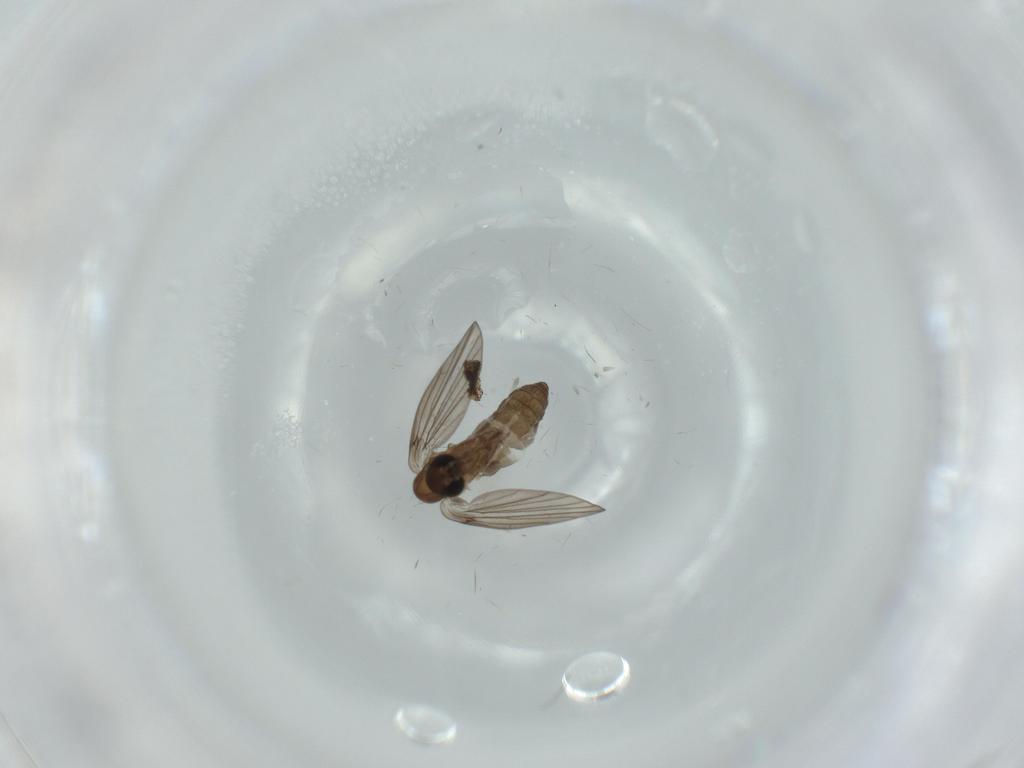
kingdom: Animalia
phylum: Arthropoda
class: Insecta
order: Diptera
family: Psychodidae
